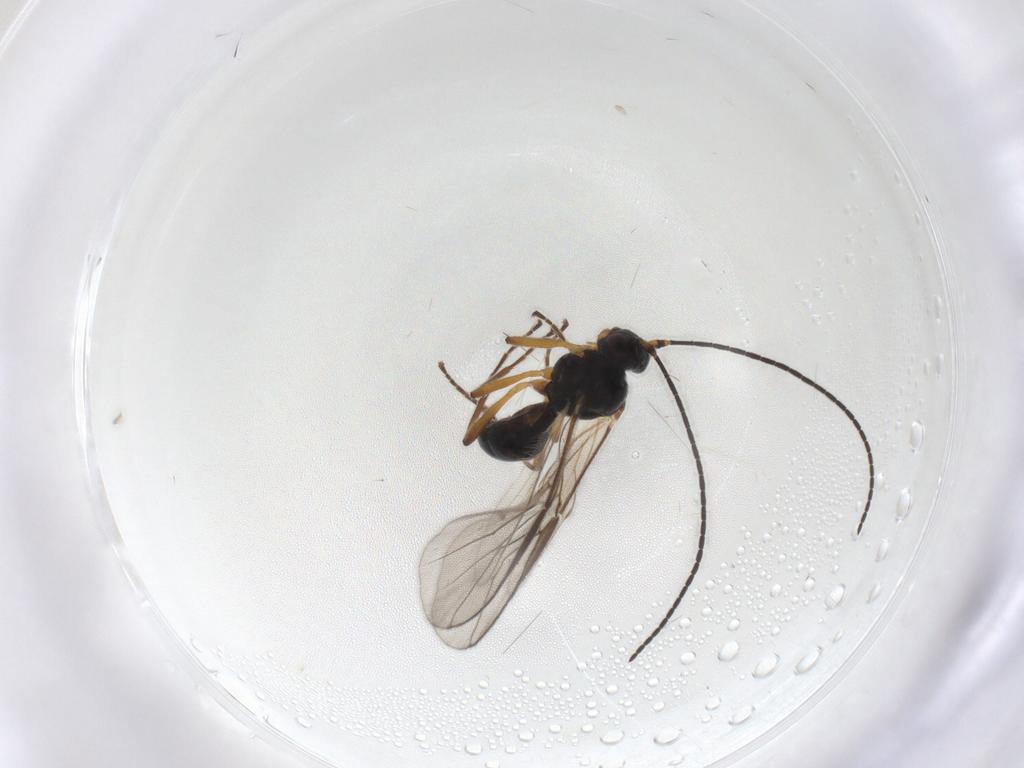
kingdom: Animalia
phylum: Arthropoda
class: Insecta
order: Hymenoptera
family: Braconidae
